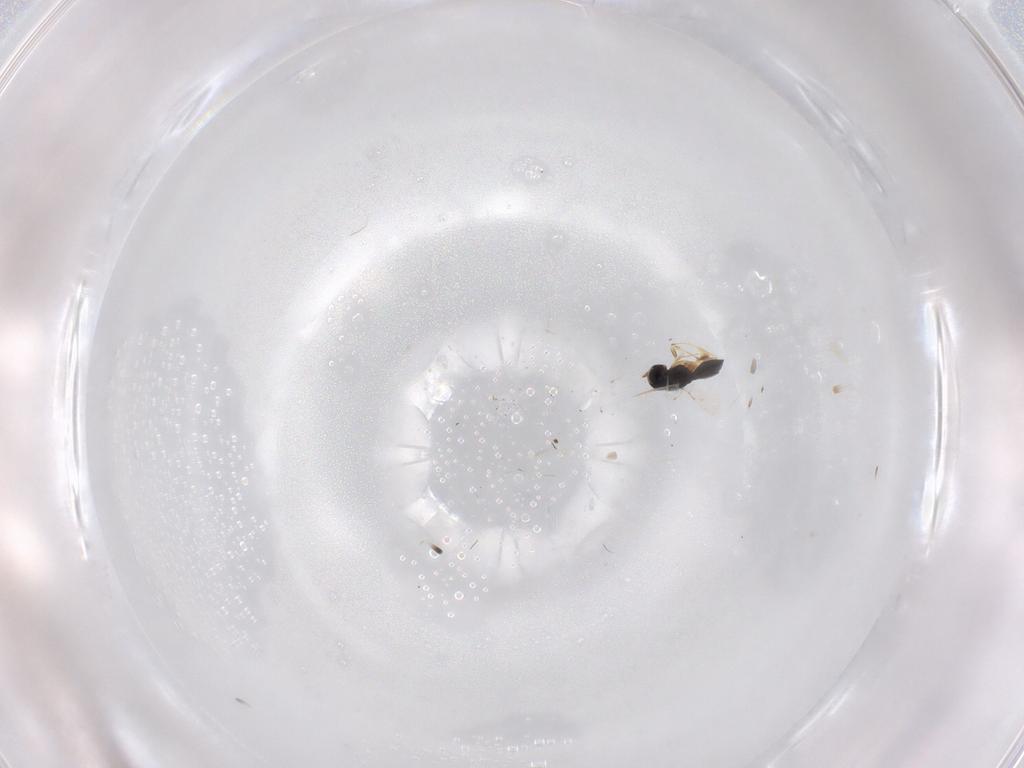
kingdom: Animalia
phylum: Arthropoda
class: Insecta
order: Hymenoptera
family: Scelionidae
